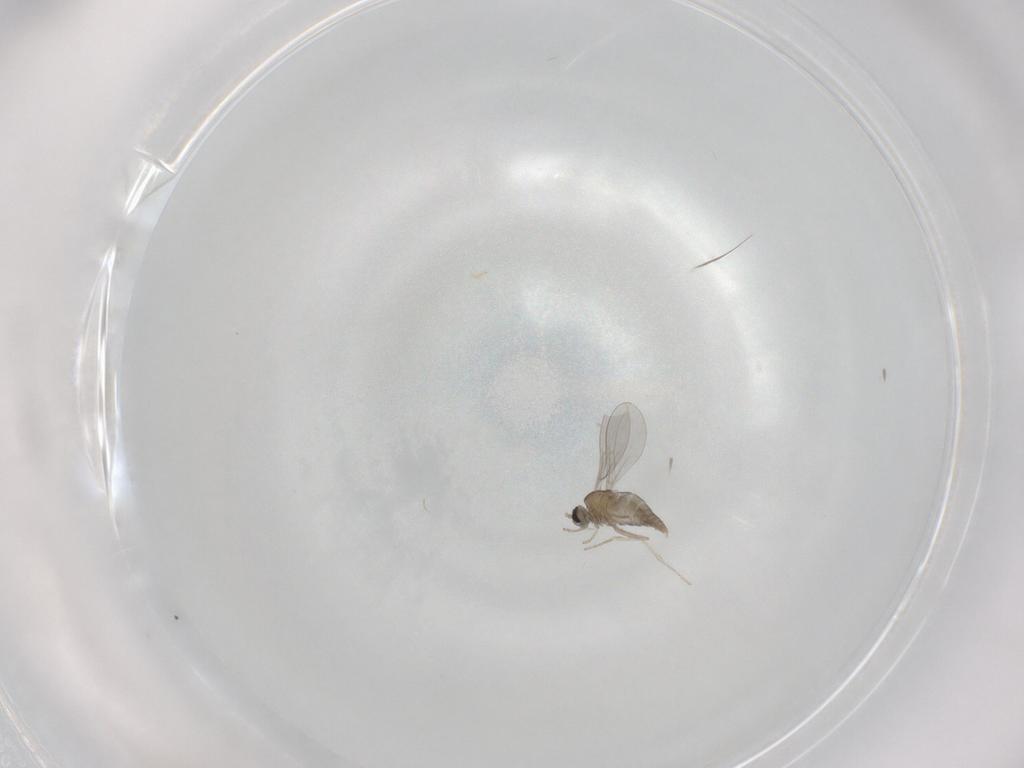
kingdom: Animalia
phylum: Arthropoda
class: Insecta
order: Diptera
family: Cecidomyiidae
